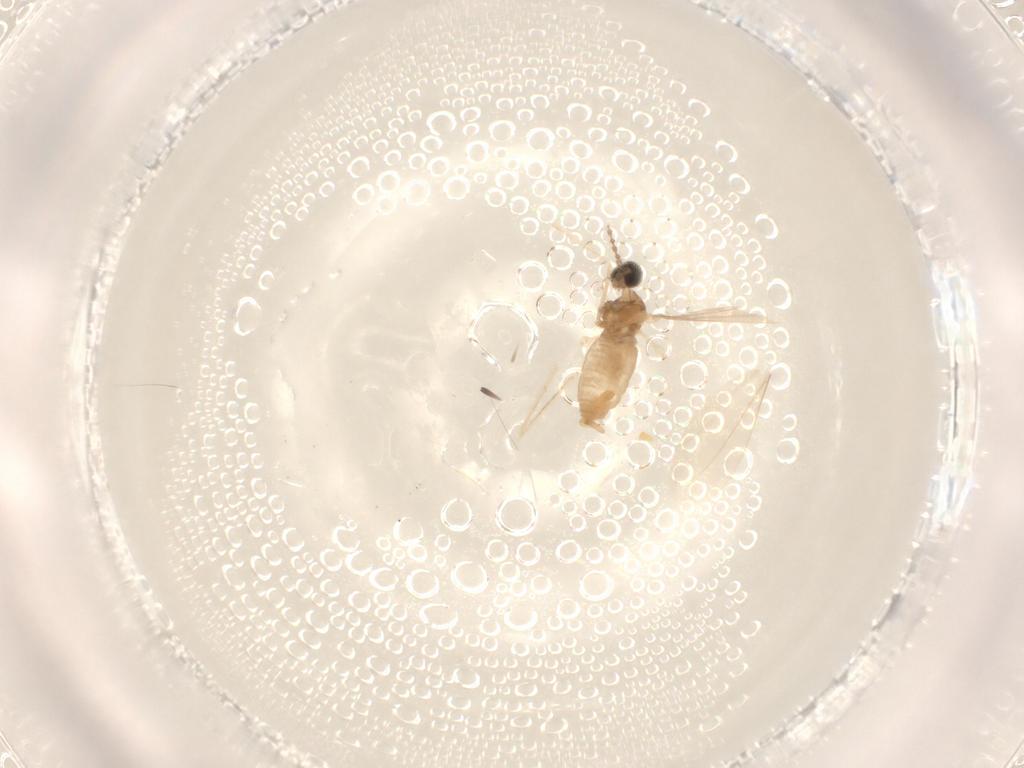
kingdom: Animalia
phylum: Arthropoda
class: Insecta
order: Diptera
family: Cecidomyiidae
